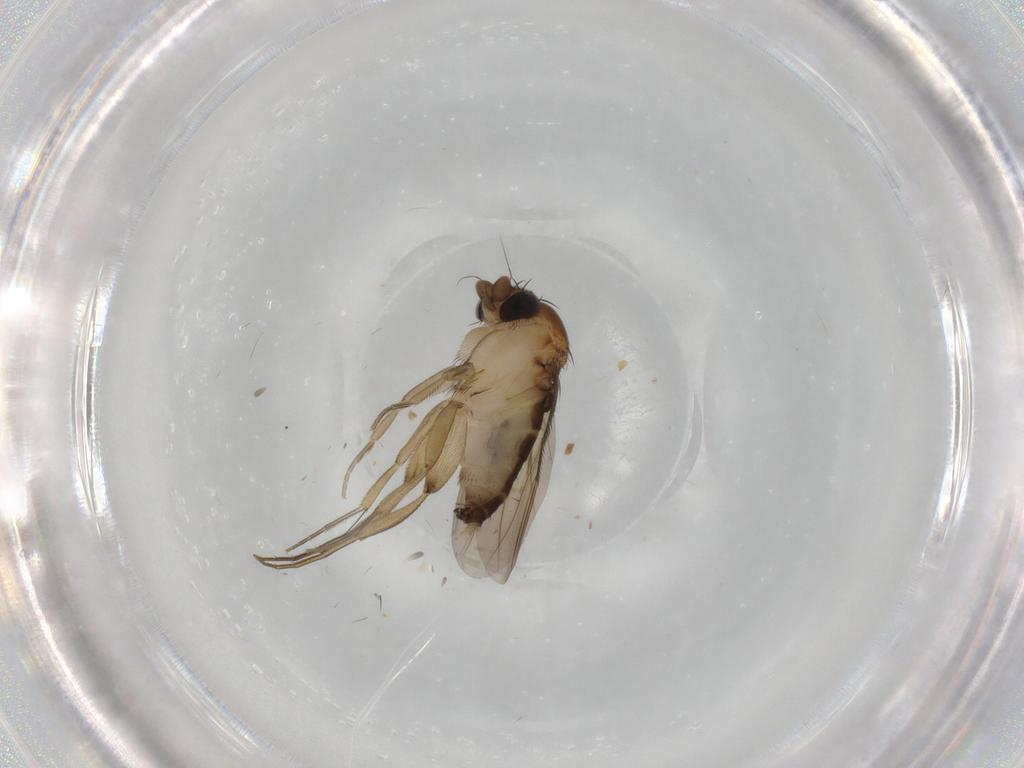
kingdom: Animalia
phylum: Arthropoda
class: Insecta
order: Diptera
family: Phoridae
